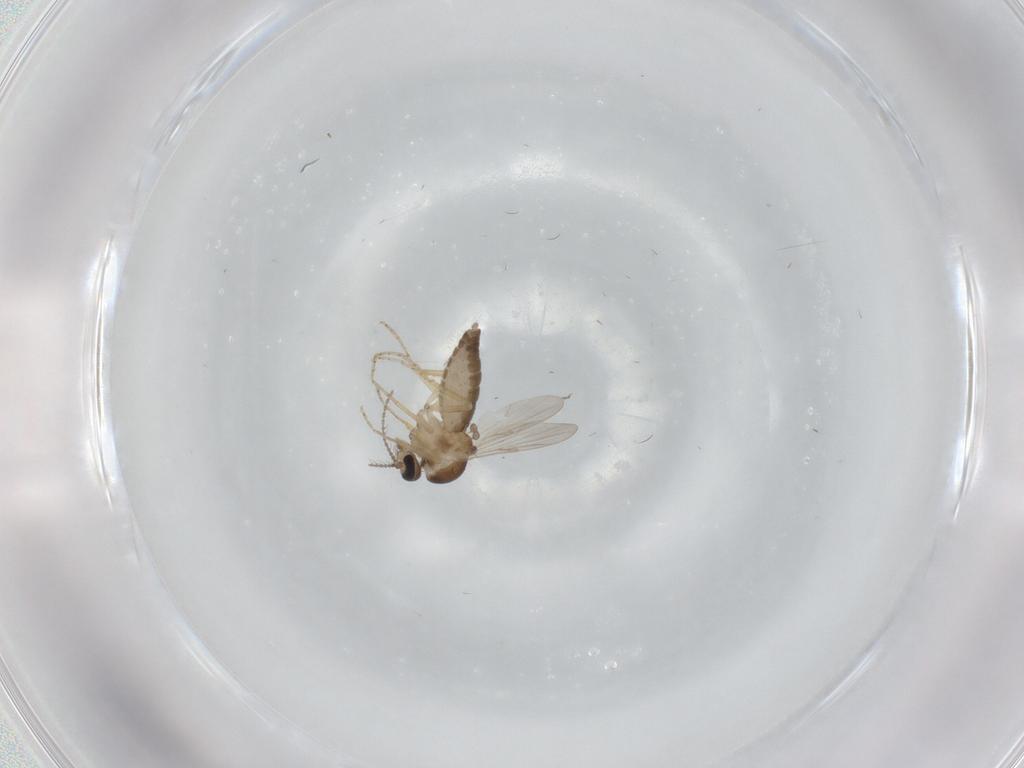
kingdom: Animalia
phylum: Arthropoda
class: Insecta
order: Diptera
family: Ceratopogonidae
